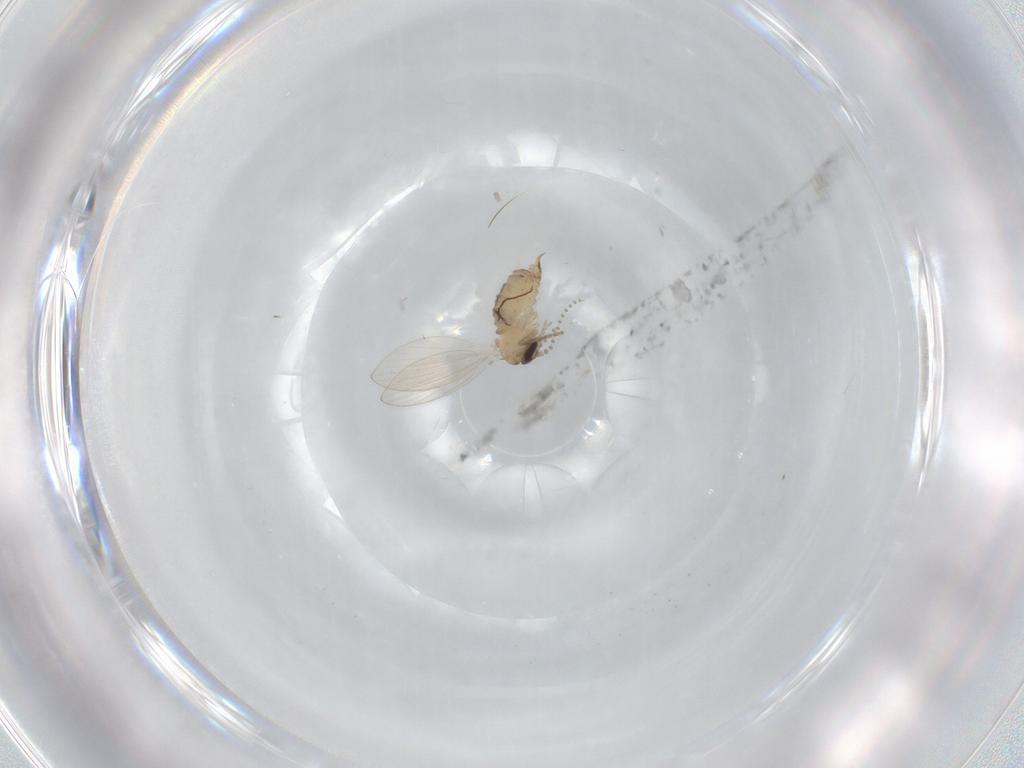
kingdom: Animalia
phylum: Arthropoda
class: Insecta
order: Diptera
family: Psychodidae
